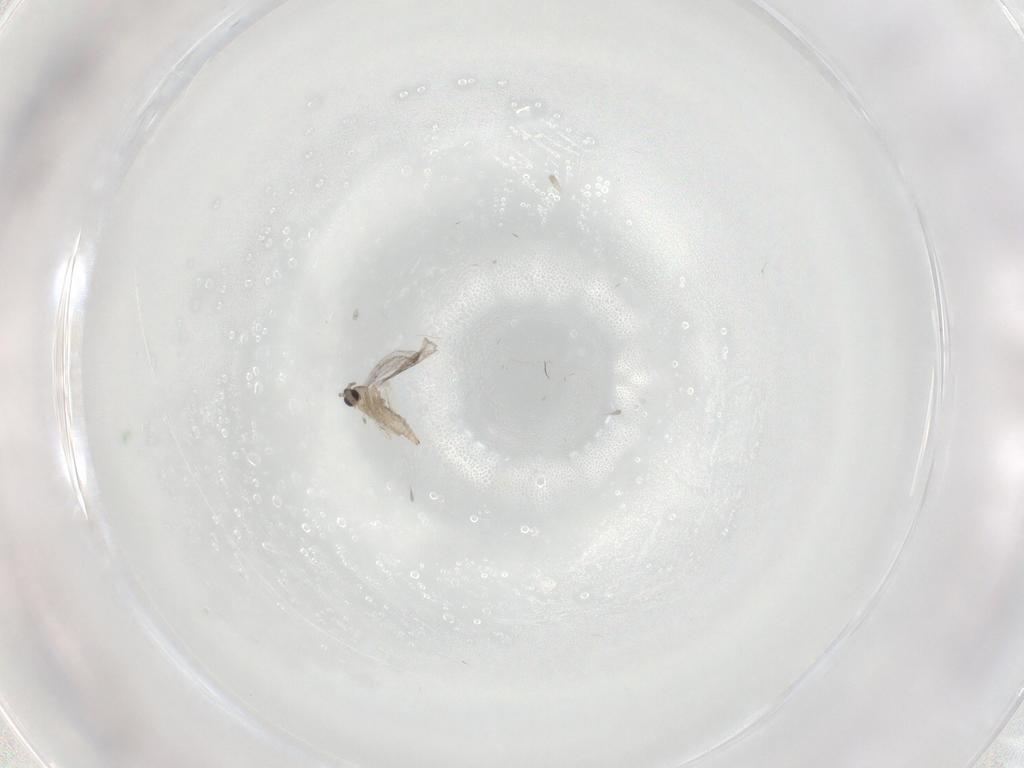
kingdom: Animalia
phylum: Arthropoda
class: Insecta
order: Diptera
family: Cecidomyiidae
